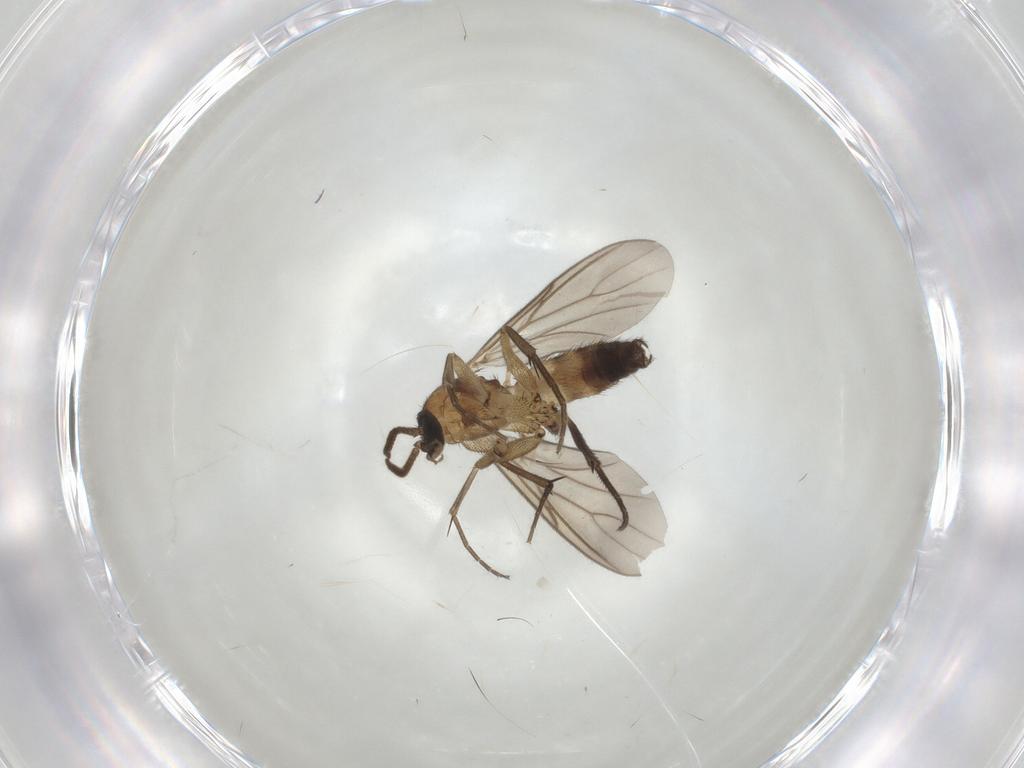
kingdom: Animalia
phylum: Arthropoda
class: Insecta
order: Diptera
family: Mycetophilidae
